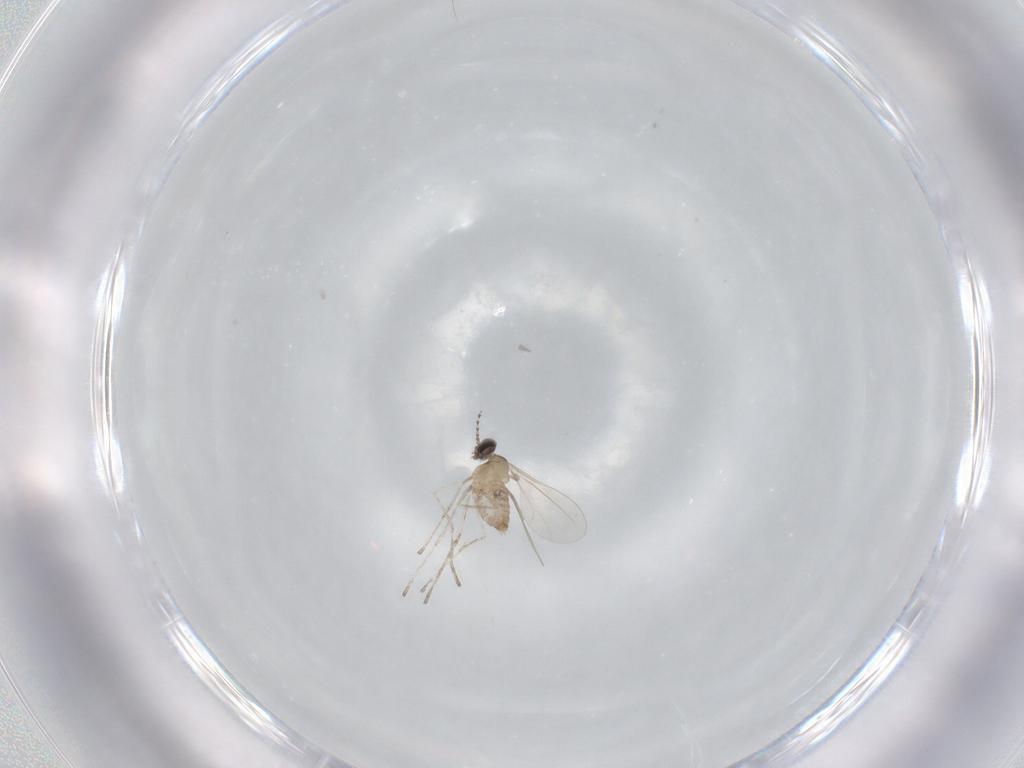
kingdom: Animalia
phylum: Arthropoda
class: Insecta
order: Diptera
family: Cecidomyiidae
